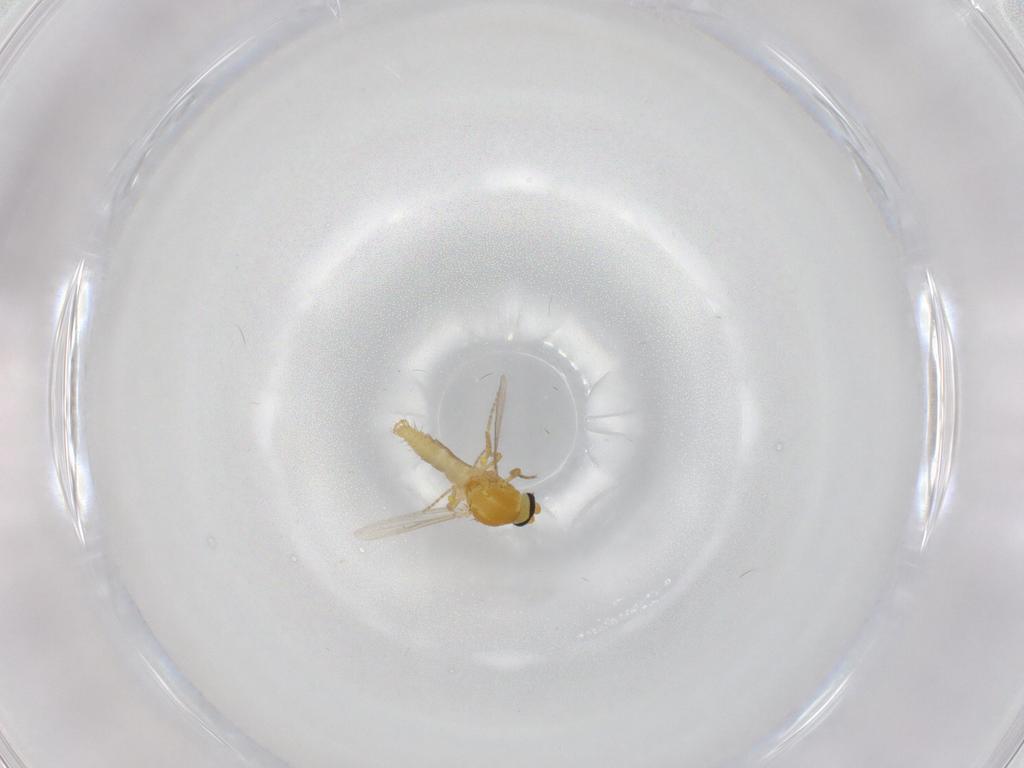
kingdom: Animalia
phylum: Arthropoda
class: Insecta
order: Diptera
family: Ceratopogonidae
